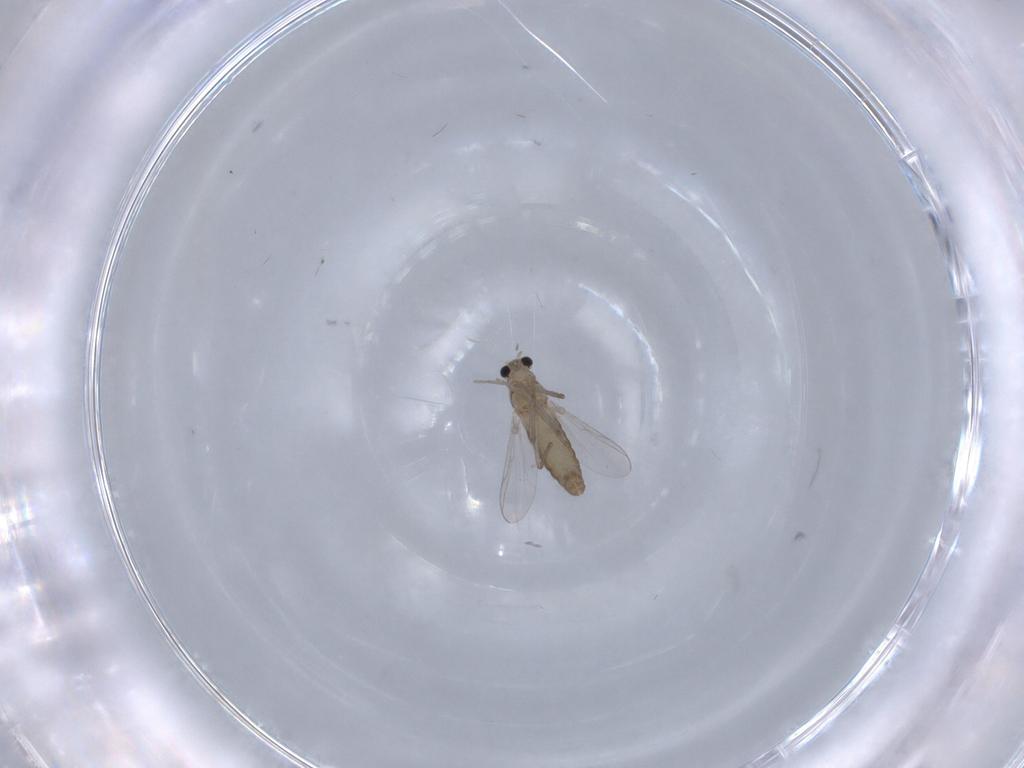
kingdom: Animalia
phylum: Arthropoda
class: Insecta
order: Diptera
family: Chironomidae
